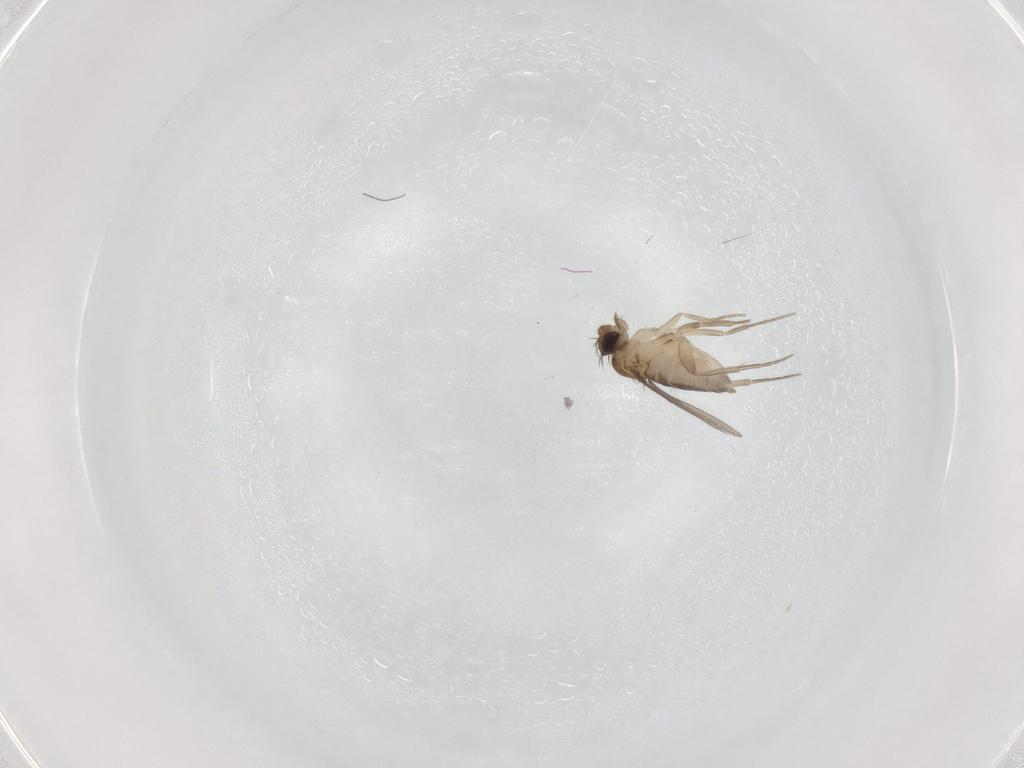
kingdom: Animalia
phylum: Arthropoda
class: Insecta
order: Diptera
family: Phoridae
